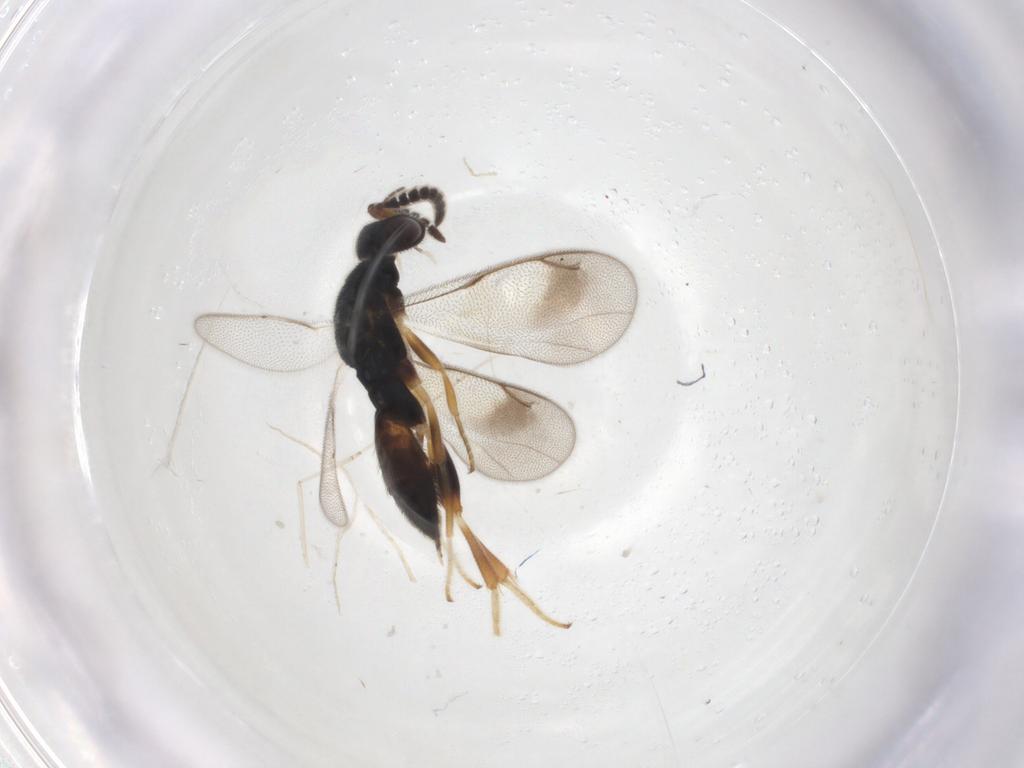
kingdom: Animalia
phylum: Arthropoda
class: Insecta
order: Hymenoptera
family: Cleonyminae
